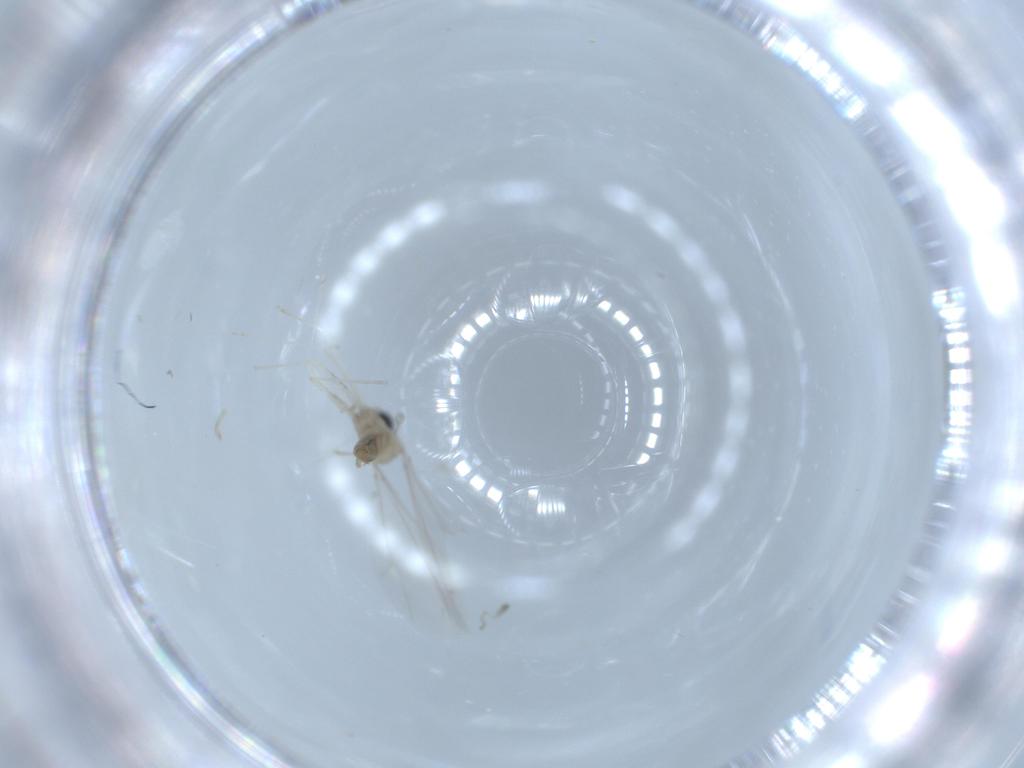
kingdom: Animalia
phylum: Arthropoda
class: Insecta
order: Diptera
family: Cecidomyiidae
